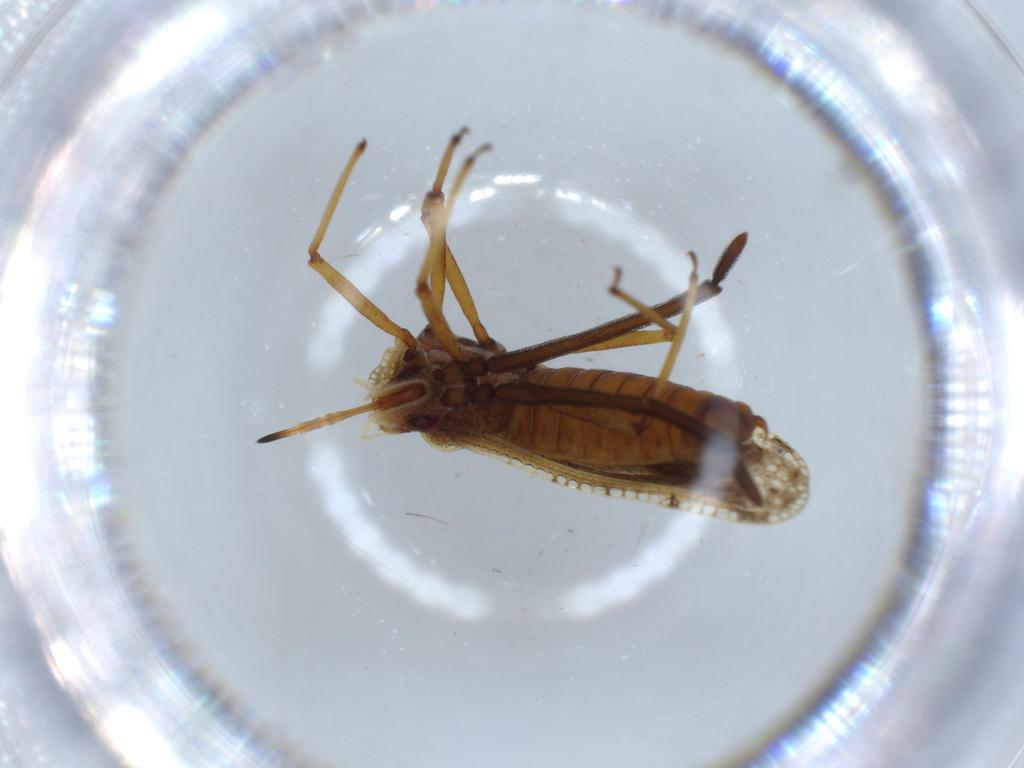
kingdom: Animalia
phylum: Arthropoda
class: Insecta
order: Hemiptera
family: Tingidae
